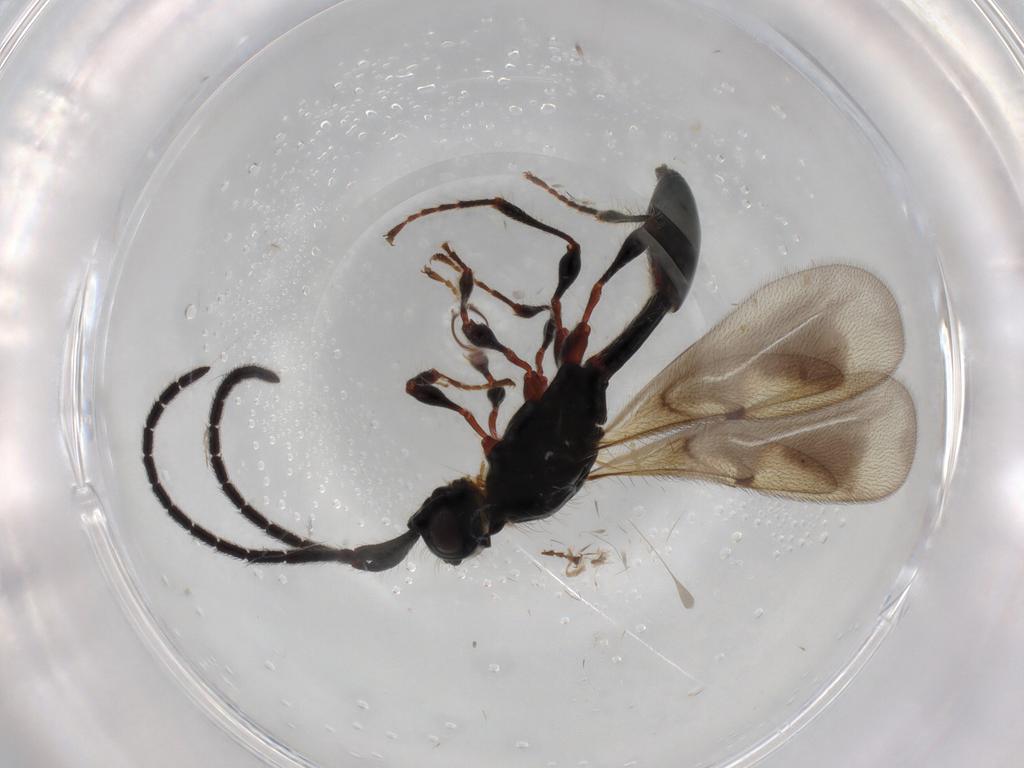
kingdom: Animalia
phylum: Arthropoda
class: Insecta
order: Hymenoptera
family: Diapriidae
